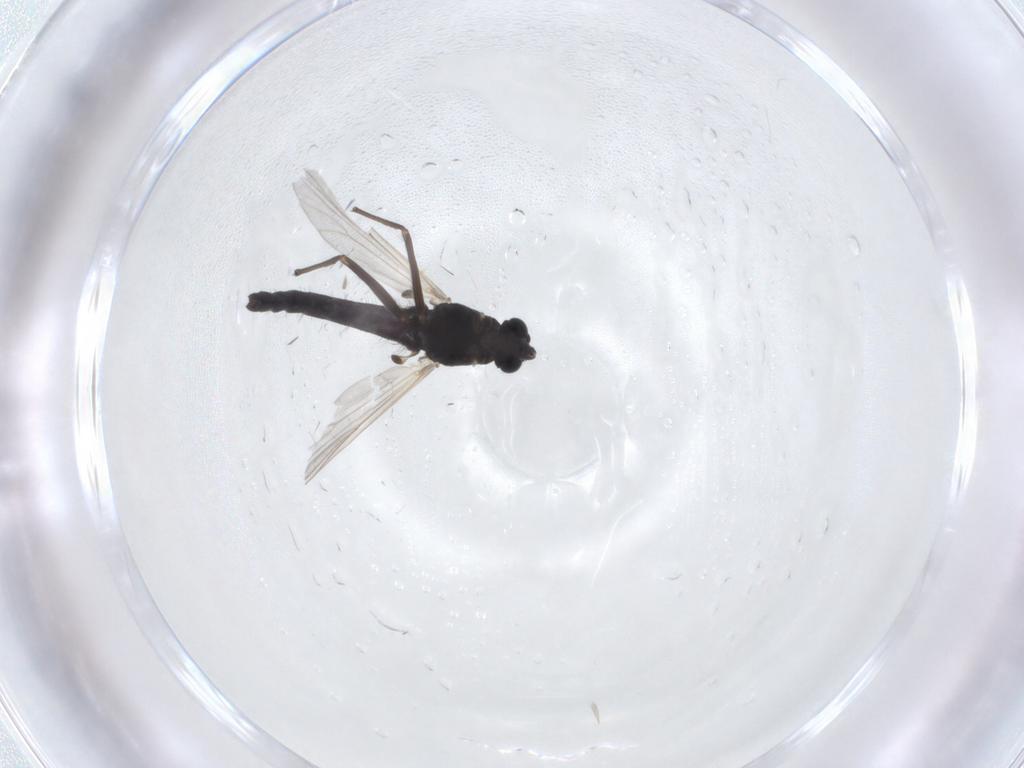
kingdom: Animalia
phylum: Arthropoda
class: Insecta
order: Diptera
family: Chironomidae
